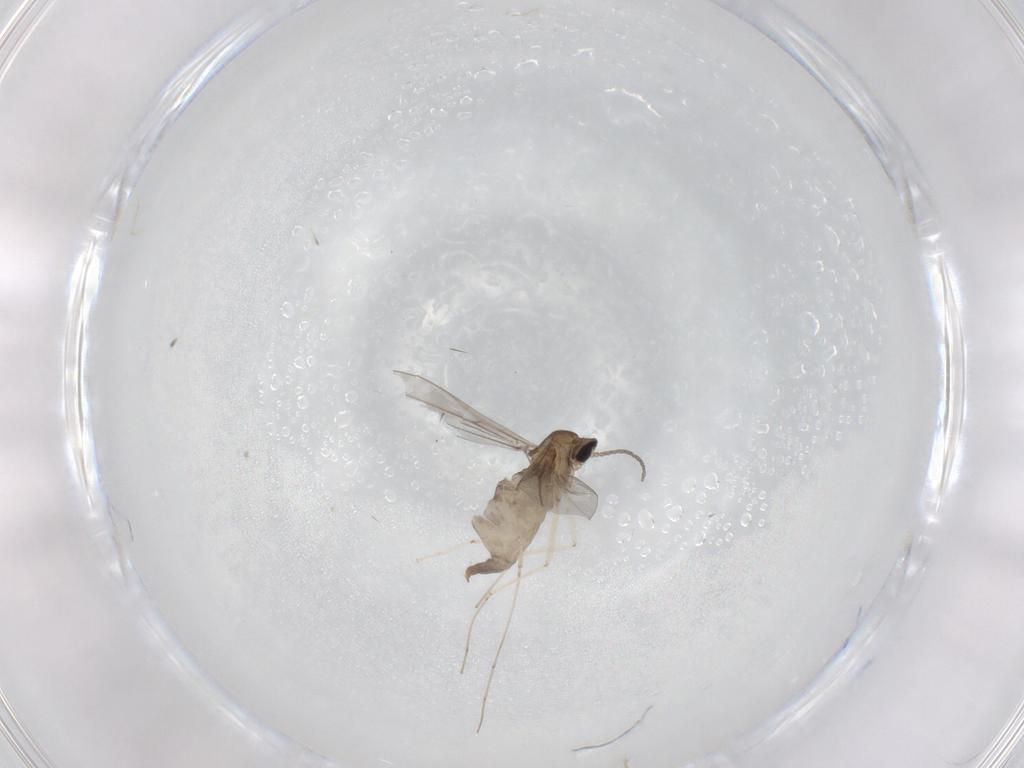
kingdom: Animalia
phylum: Arthropoda
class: Insecta
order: Diptera
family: Cecidomyiidae
